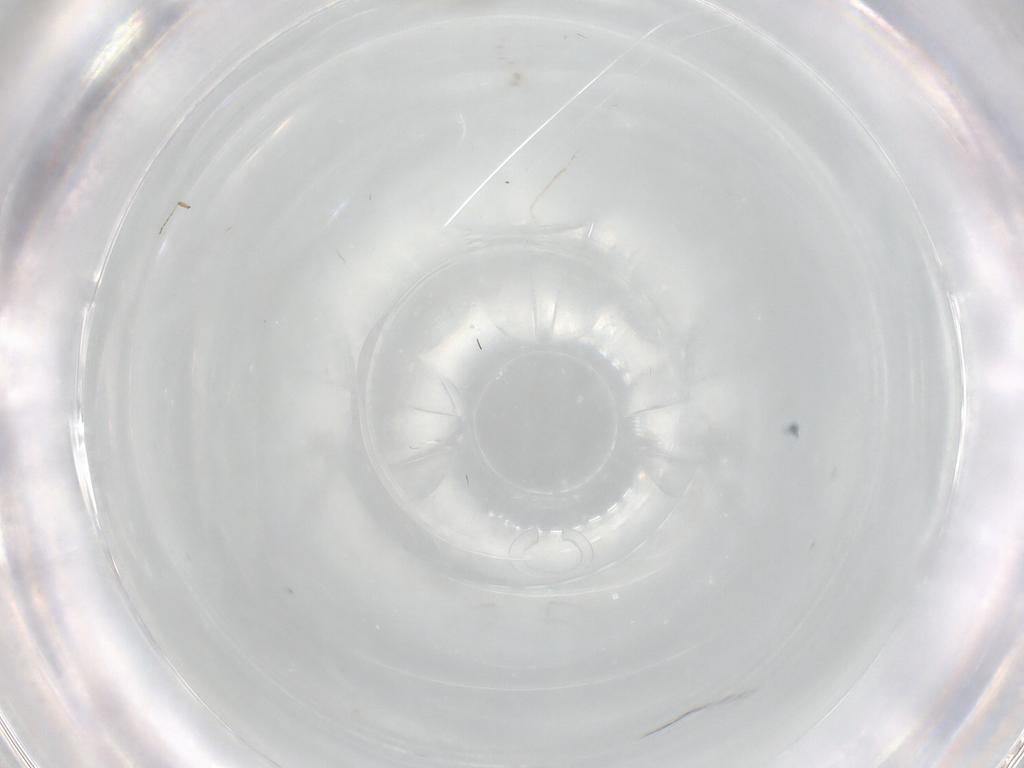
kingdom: Animalia
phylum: Arthropoda
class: Insecta
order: Diptera
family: Ceratopogonidae
